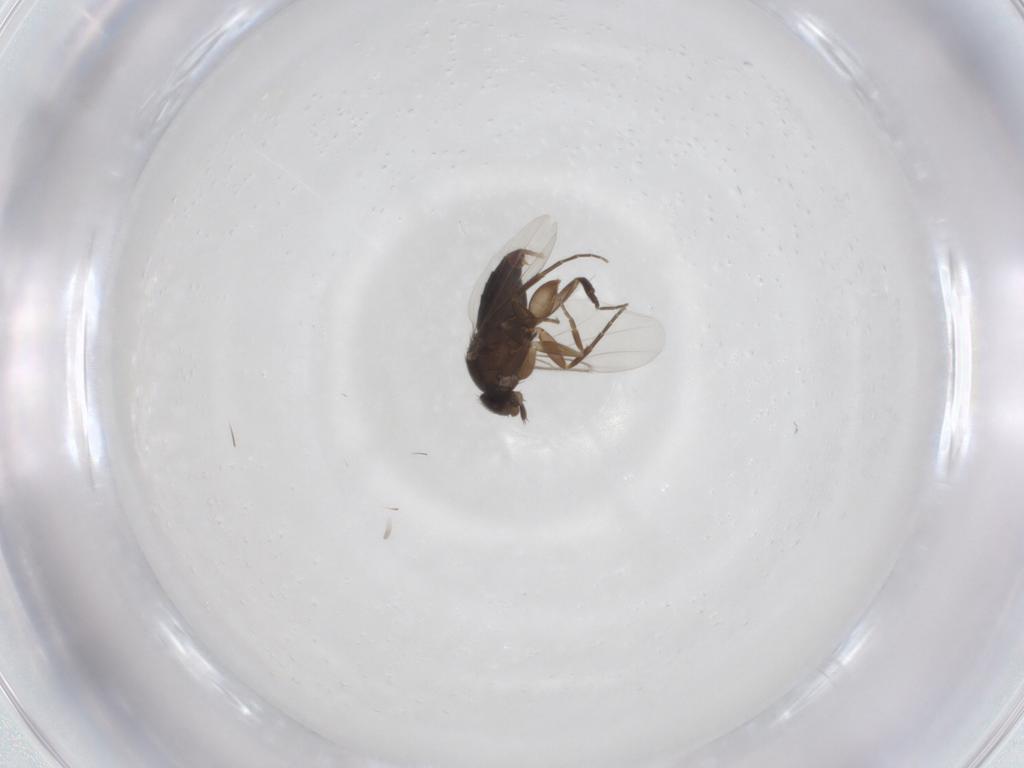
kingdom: Animalia
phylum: Arthropoda
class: Insecta
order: Diptera
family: Phoridae
